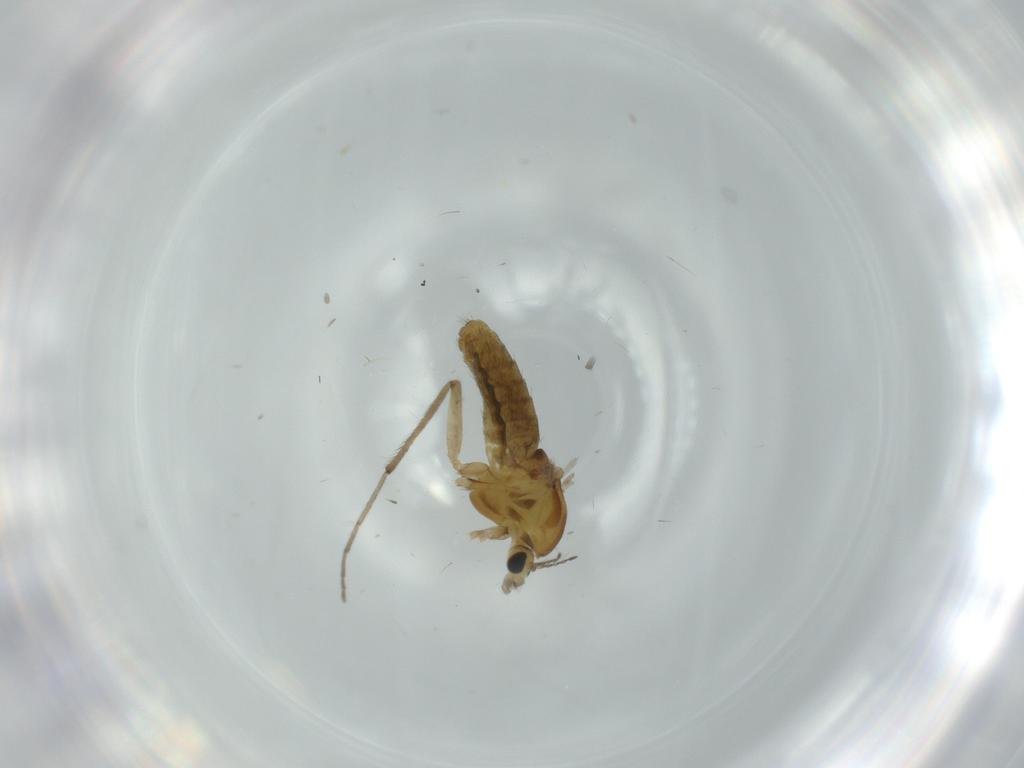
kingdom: Animalia
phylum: Arthropoda
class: Insecta
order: Diptera
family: Chironomidae
